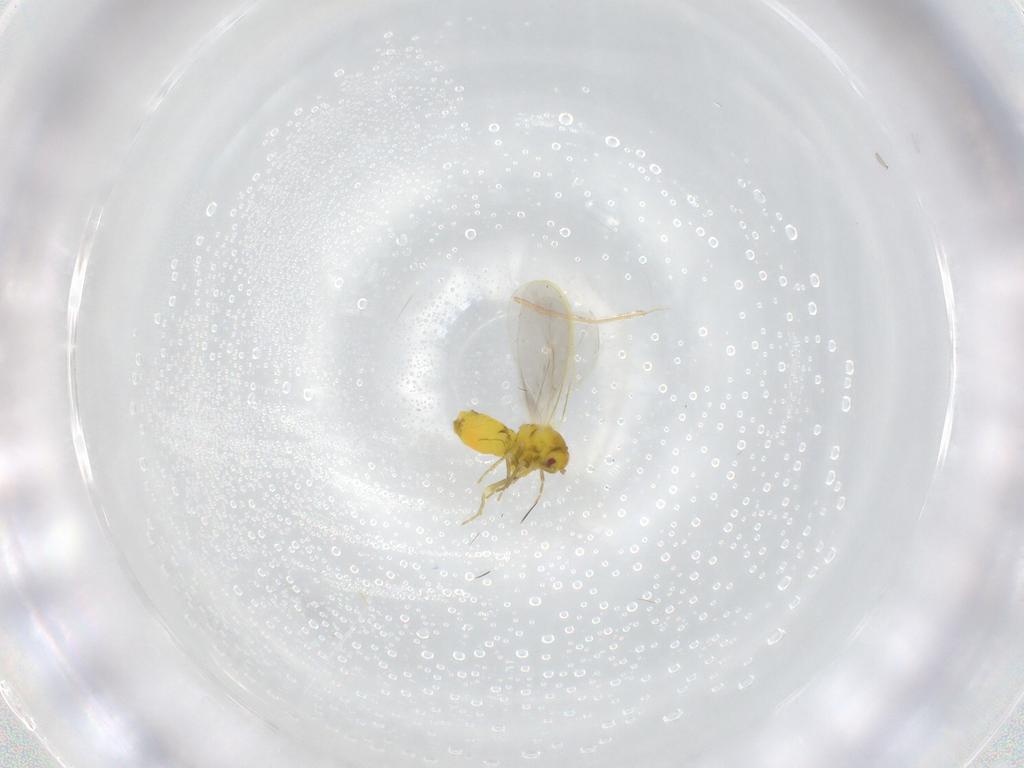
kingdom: Animalia
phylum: Arthropoda
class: Insecta
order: Hemiptera
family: Aleyrodidae
